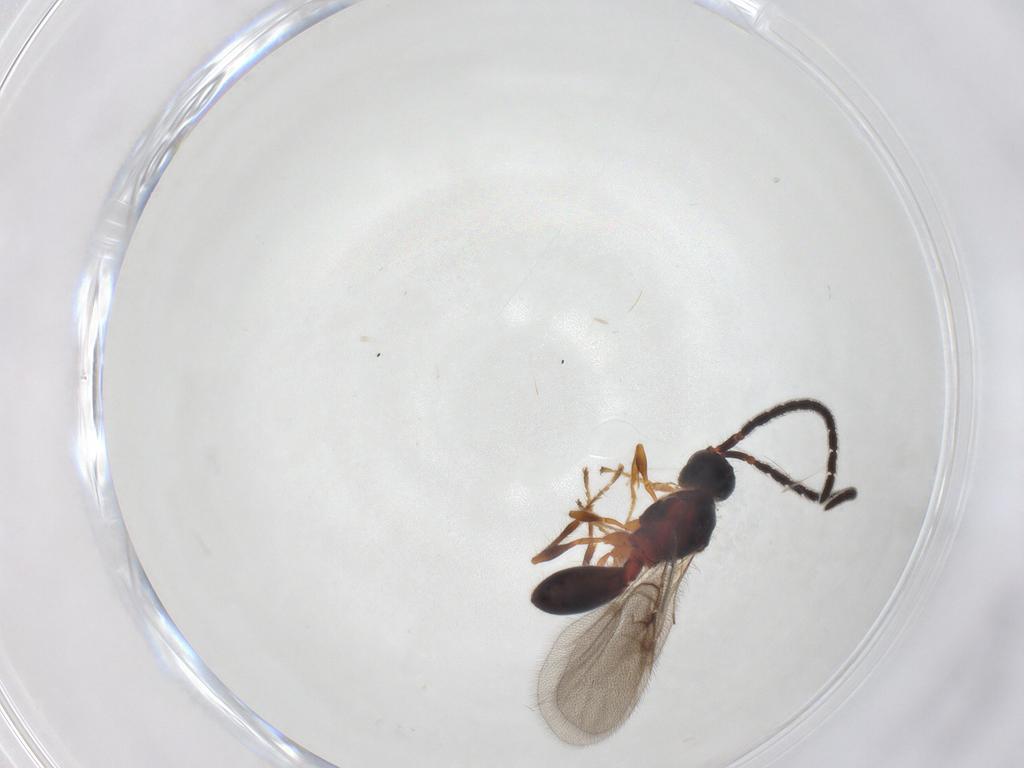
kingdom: Animalia
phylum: Arthropoda
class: Insecta
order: Hymenoptera
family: Diapriidae
